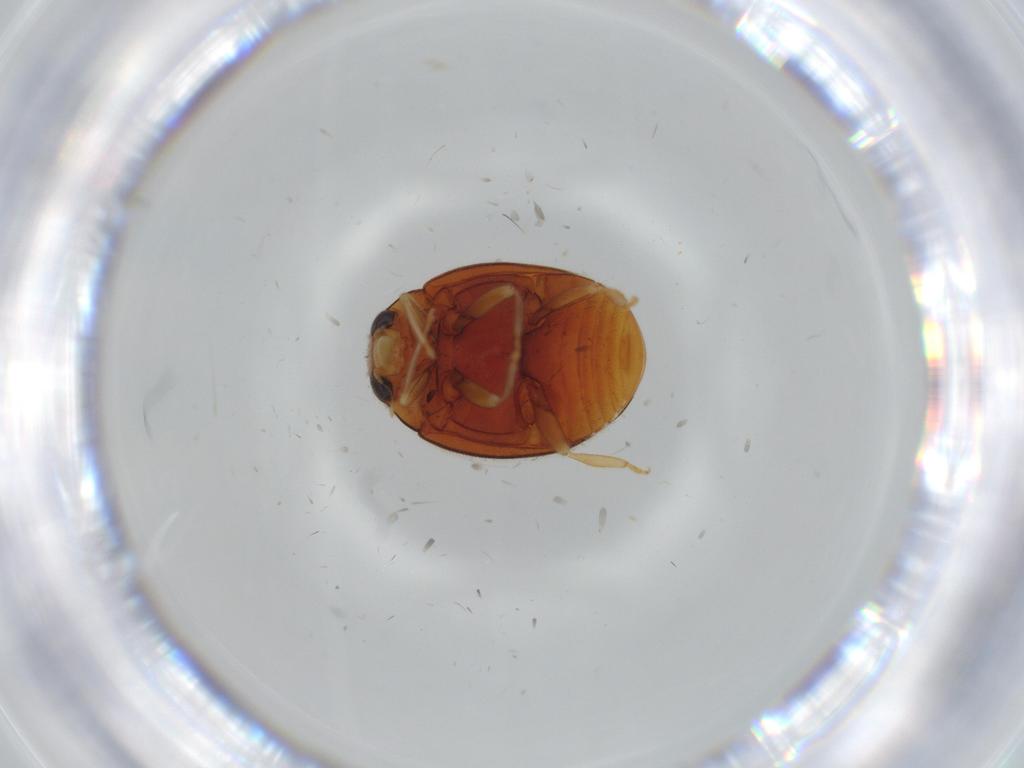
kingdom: Animalia
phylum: Arthropoda
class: Insecta
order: Coleoptera
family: Coccinellidae
